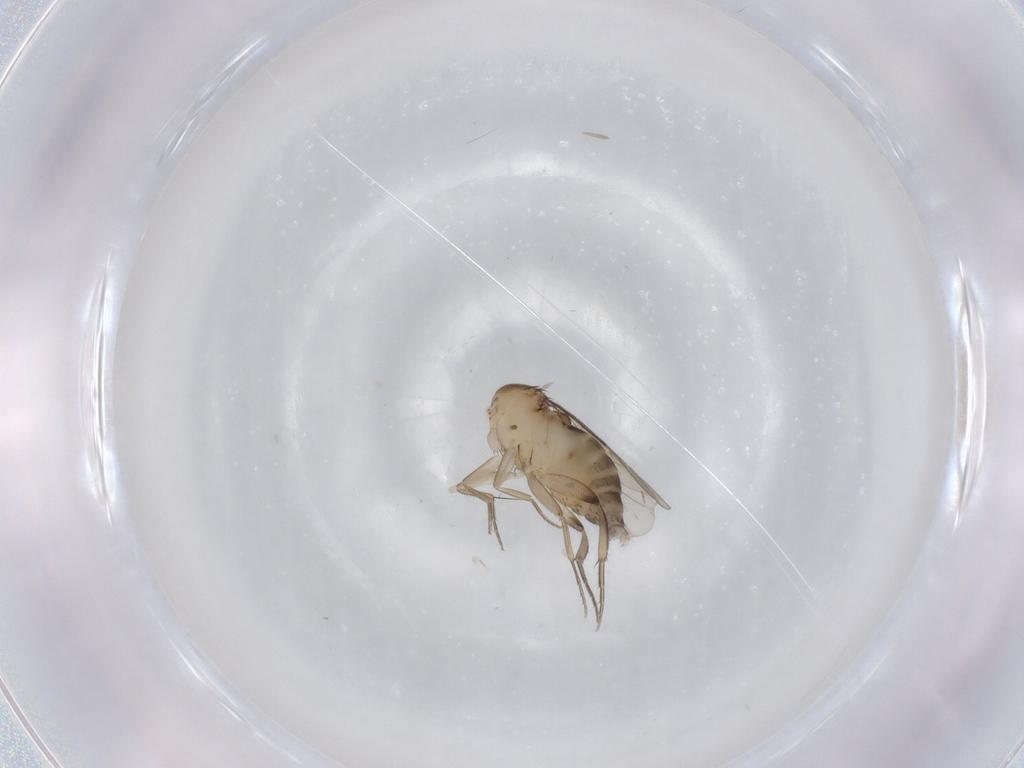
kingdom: Animalia
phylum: Arthropoda
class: Insecta
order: Diptera
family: Phoridae
